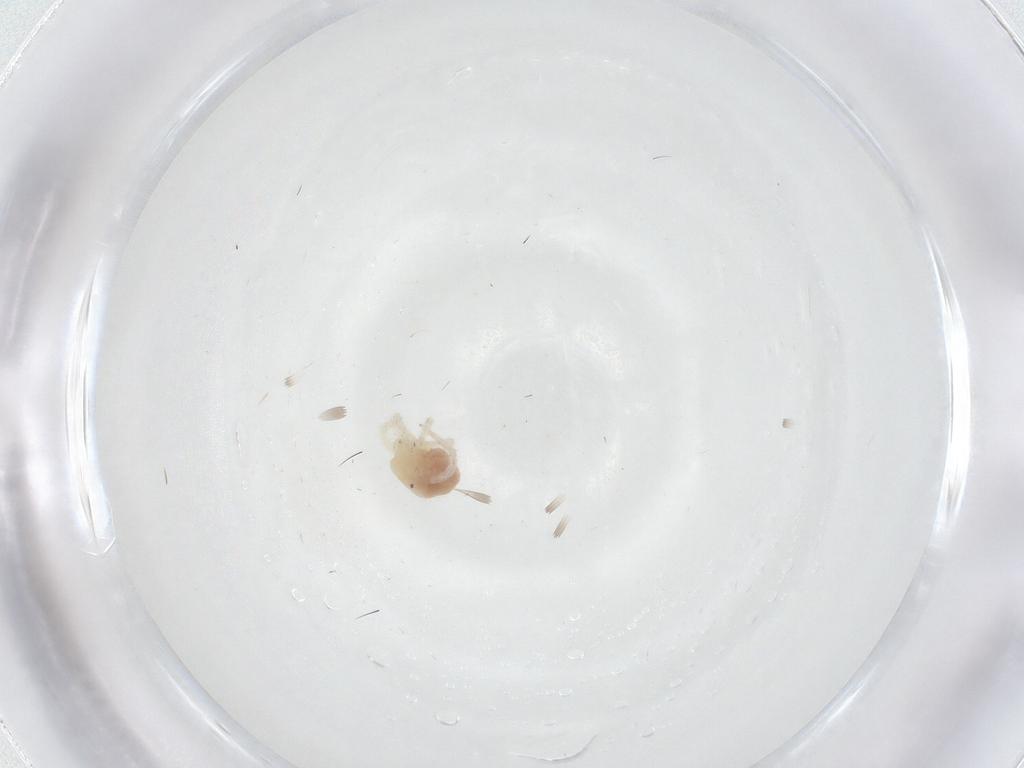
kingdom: Animalia
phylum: Arthropoda
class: Arachnida
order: Trombidiformes
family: Anystidae
